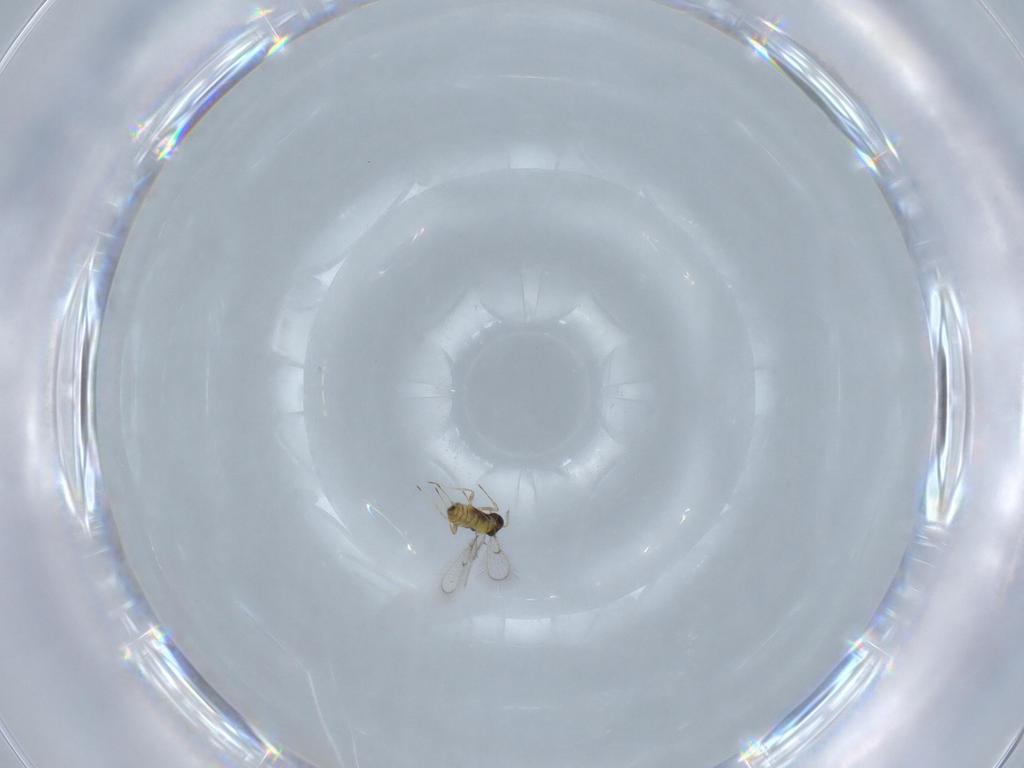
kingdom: Animalia
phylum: Arthropoda
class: Insecta
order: Hymenoptera
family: Trichogrammatidae
